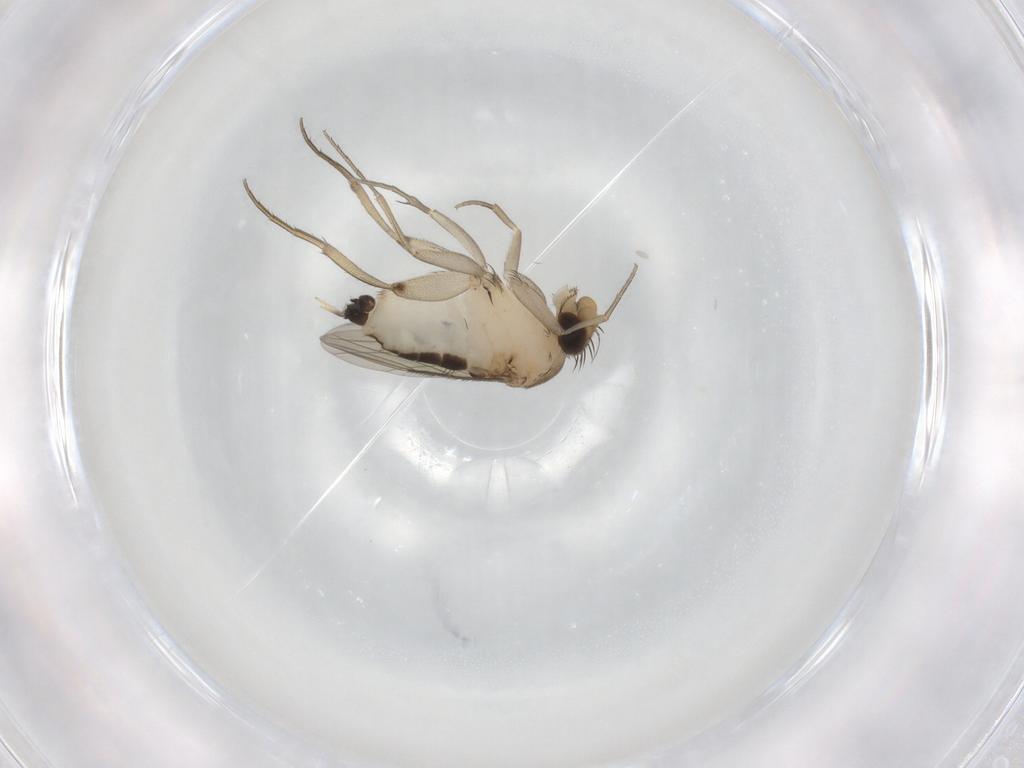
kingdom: Animalia
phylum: Arthropoda
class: Insecta
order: Diptera
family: Phoridae
